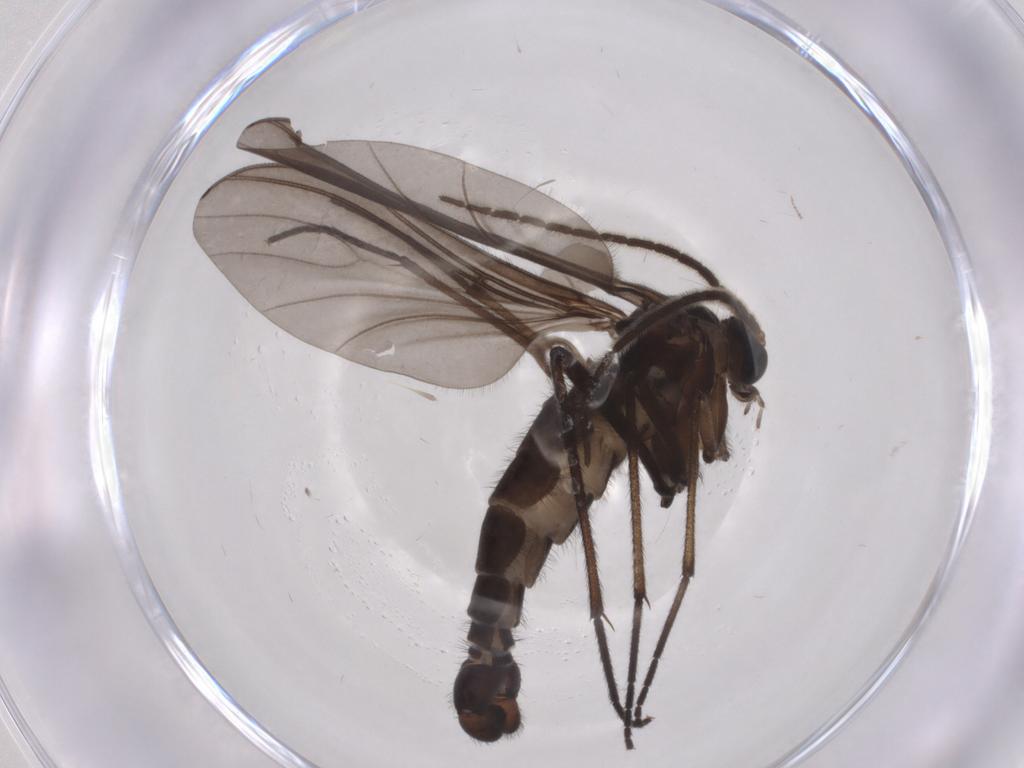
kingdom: Animalia
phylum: Arthropoda
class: Insecta
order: Diptera
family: Sciaridae
